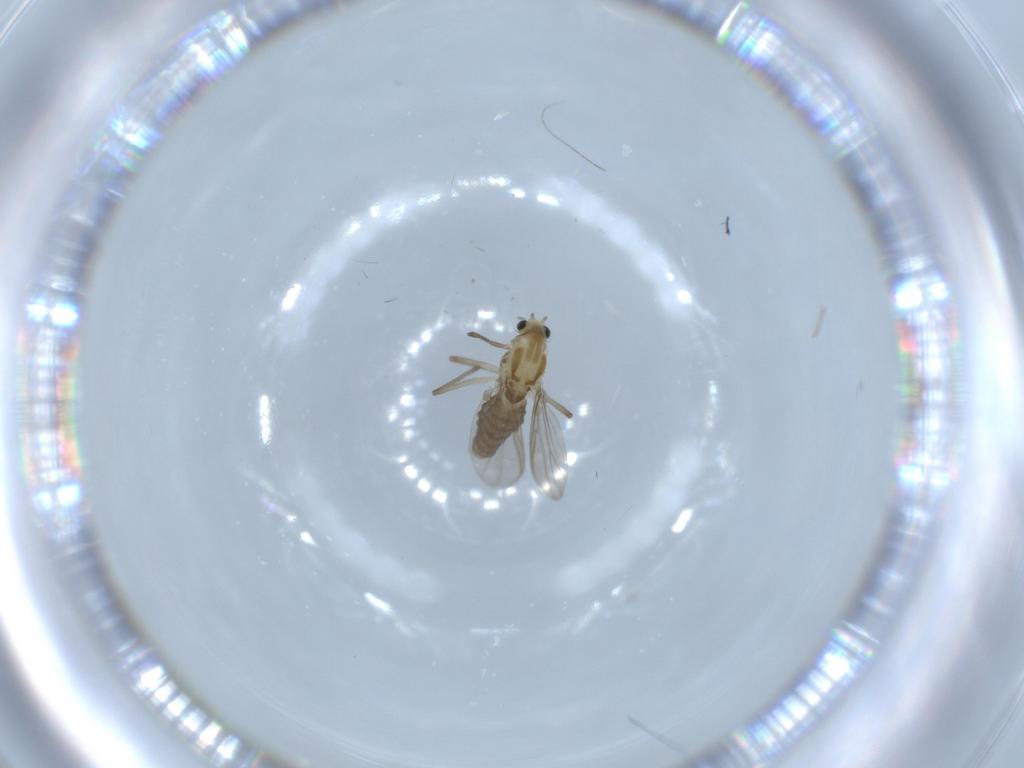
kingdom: Animalia
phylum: Arthropoda
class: Insecta
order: Diptera
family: Chironomidae
